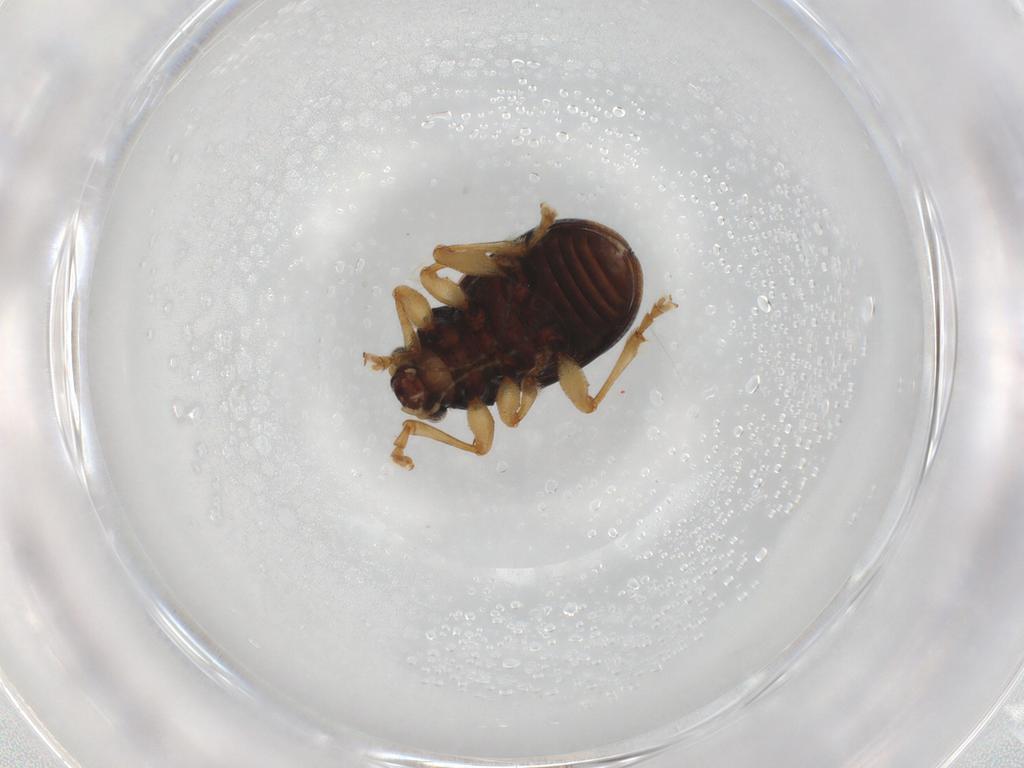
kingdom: Animalia
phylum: Arthropoda
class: Insecta
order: Coleoptera
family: Chrysomelidae
